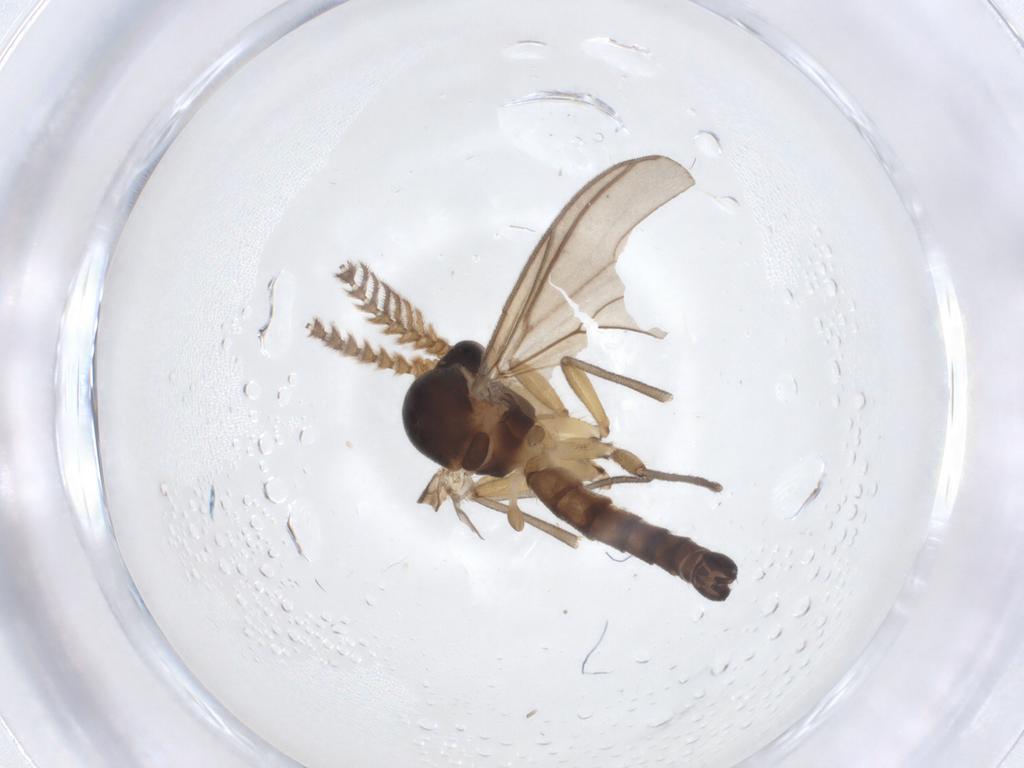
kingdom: Animalia
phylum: Arthropoda
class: Insecta
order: Diptera
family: Mycetophilidae
